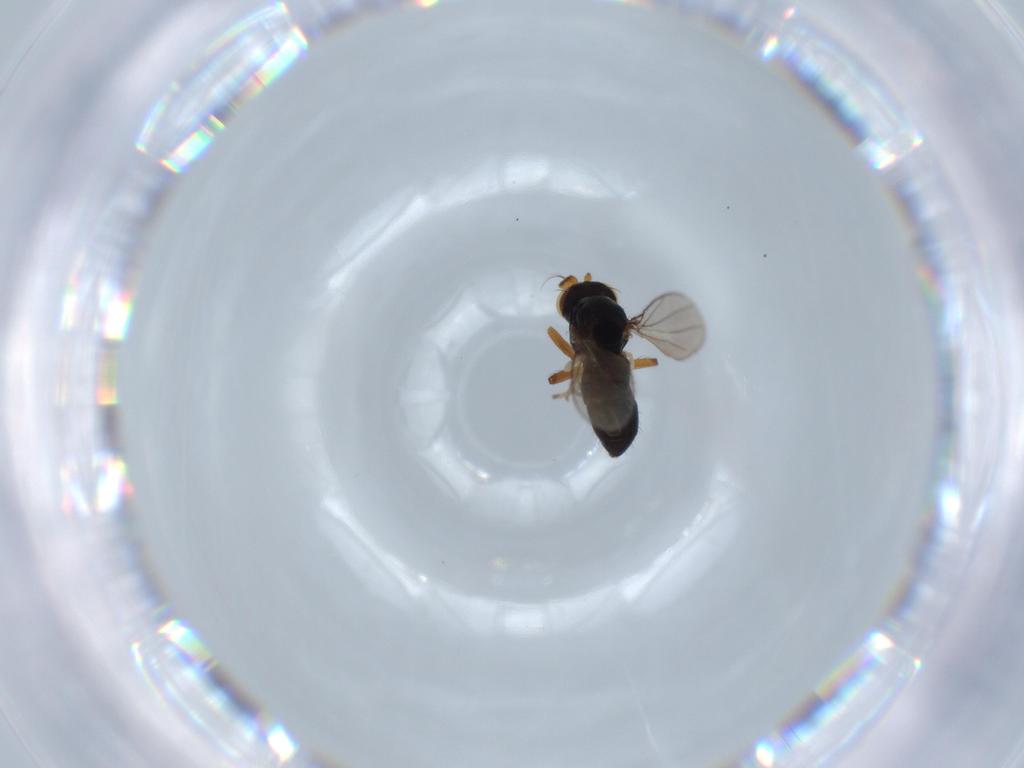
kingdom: Animalia
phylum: Arthropoda
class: Insecta
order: Diptera
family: Ephydridae
